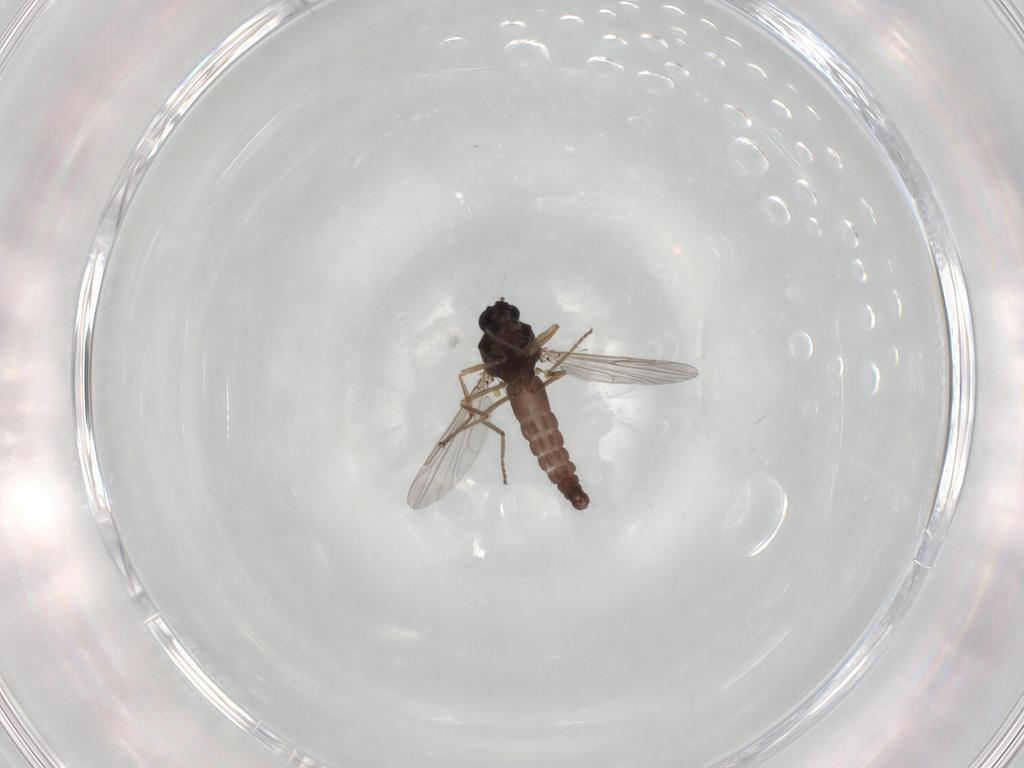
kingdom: Animalia
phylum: Arthropoda
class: Insecta
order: Diptera
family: Ceratopogonidae
